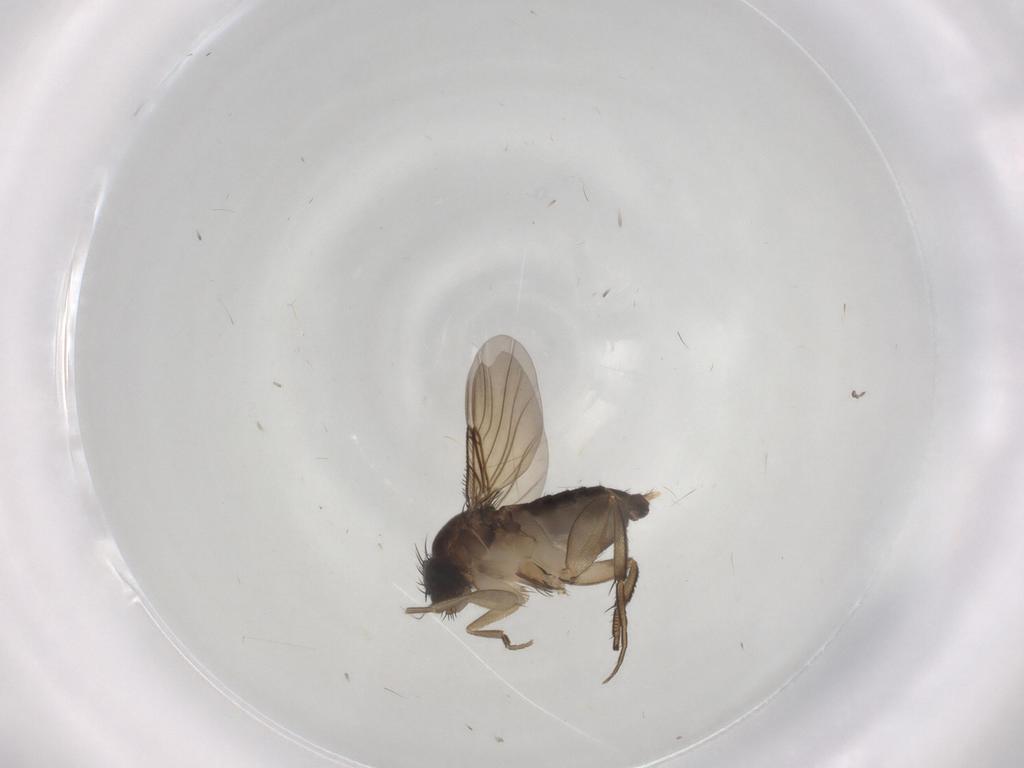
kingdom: Animalia
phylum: Arthropoda
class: Insecta
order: Diptera
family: Phoridae
